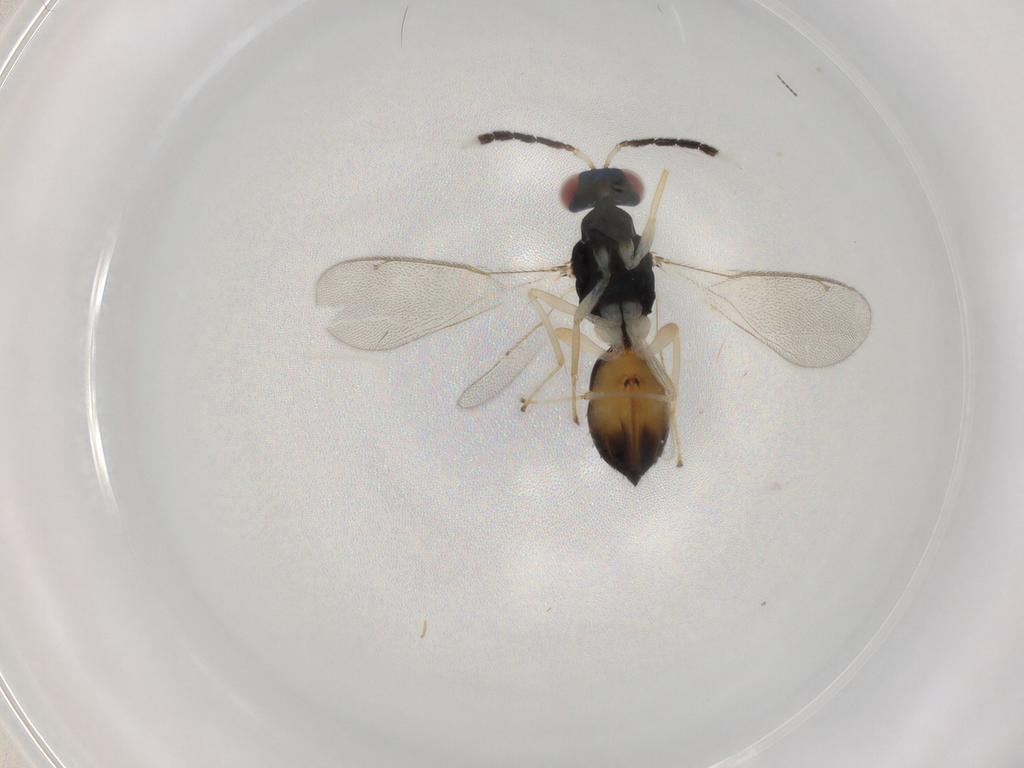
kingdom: Animalia
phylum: Arthropoda
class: Insecta
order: Hymenoptera
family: Eulophidae
